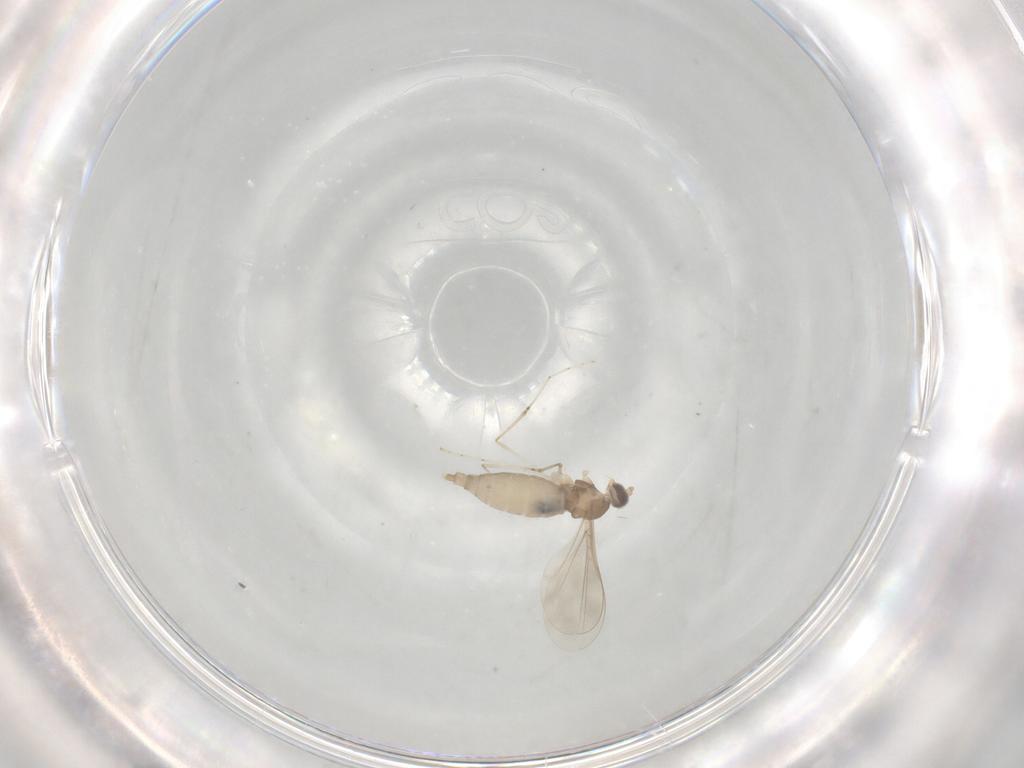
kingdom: Animalia
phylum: Arthropoda
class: Insecta
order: Diptera
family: Cecidomyiidae
